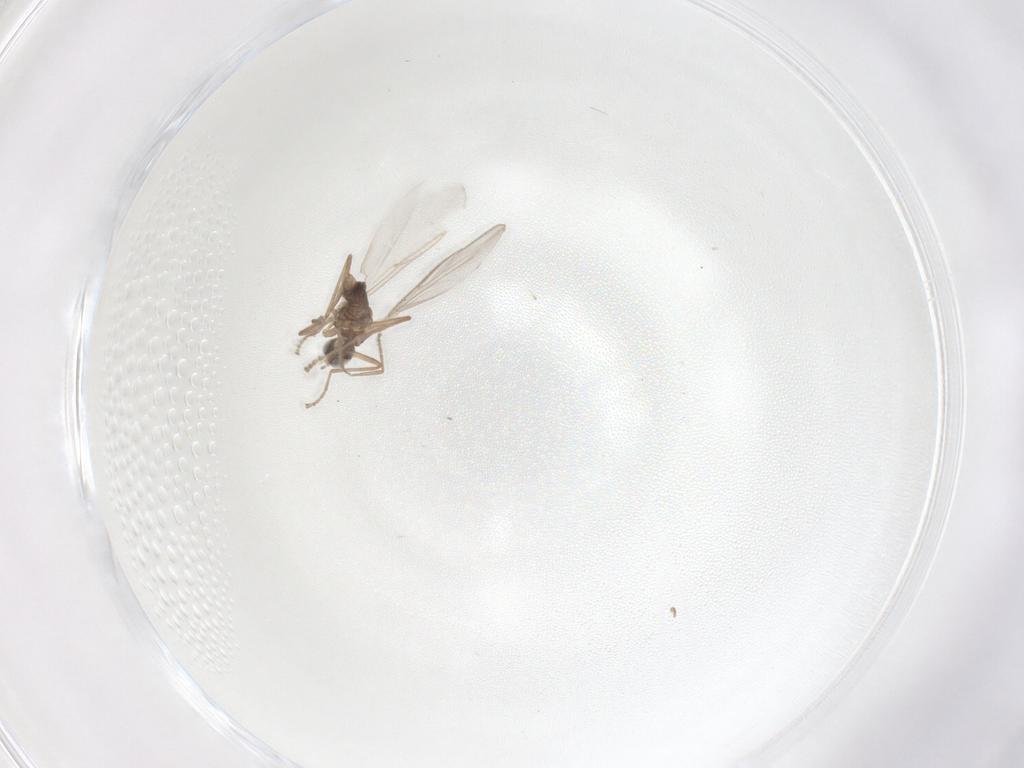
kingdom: Animalia
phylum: Arthropoda
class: Insecta
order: Diptera
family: Cecidomyiidae
